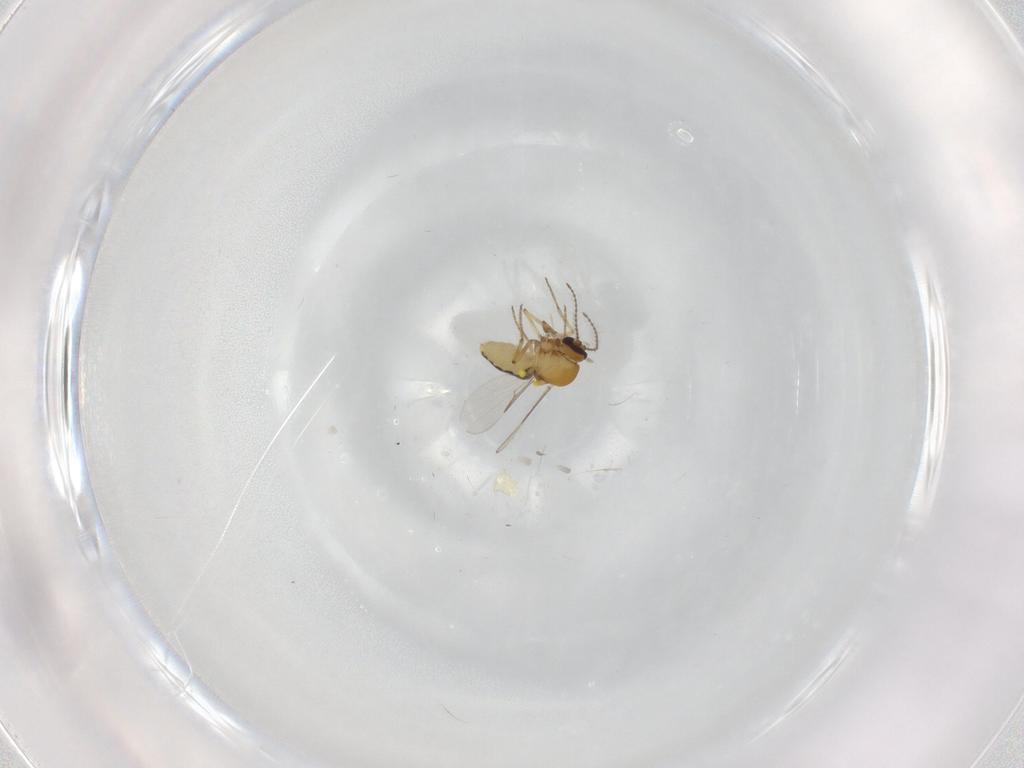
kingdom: Animalia
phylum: Arthropoda
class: Insecta
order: Diptera
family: Ceratopogonidae
